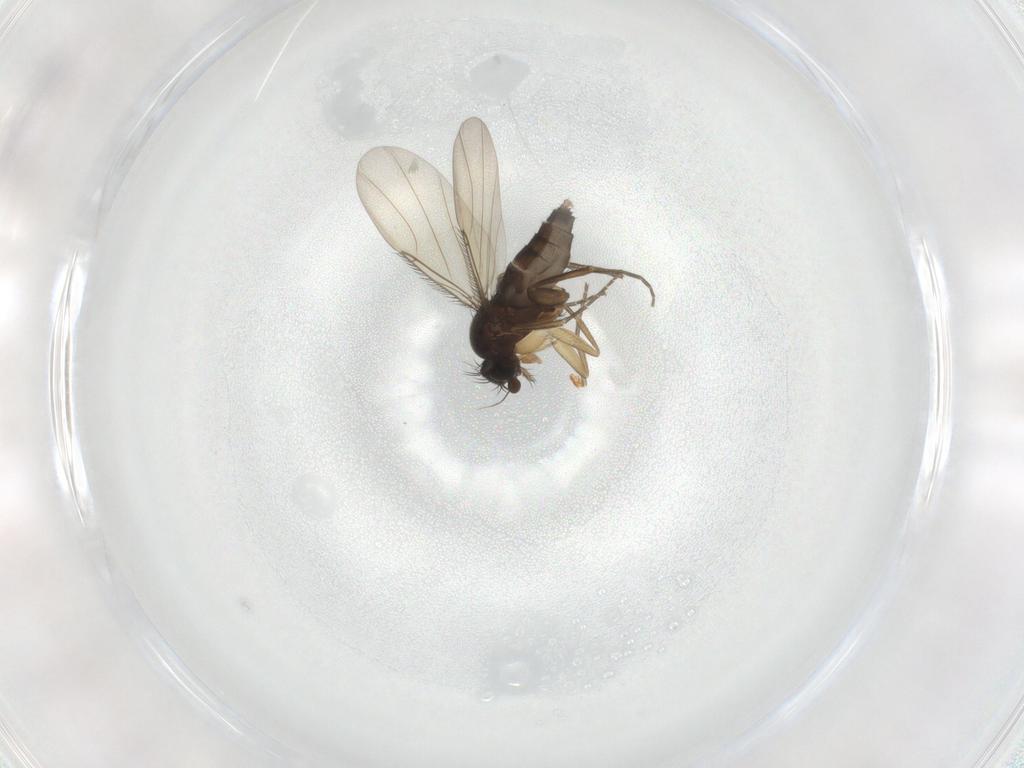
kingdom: Animalia
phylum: Arthropoda
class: Insecta
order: Diptera
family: Phoridae
